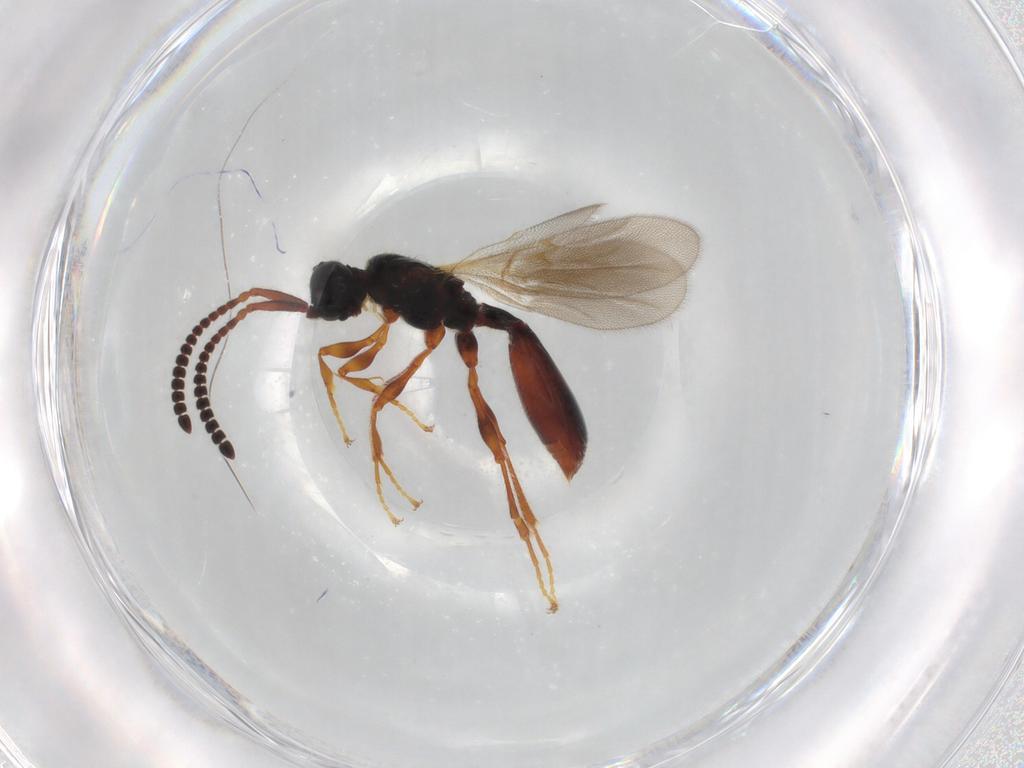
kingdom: Animalia
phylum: Arthropoda
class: Insecta
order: Hymenoptera
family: Diapriidae
